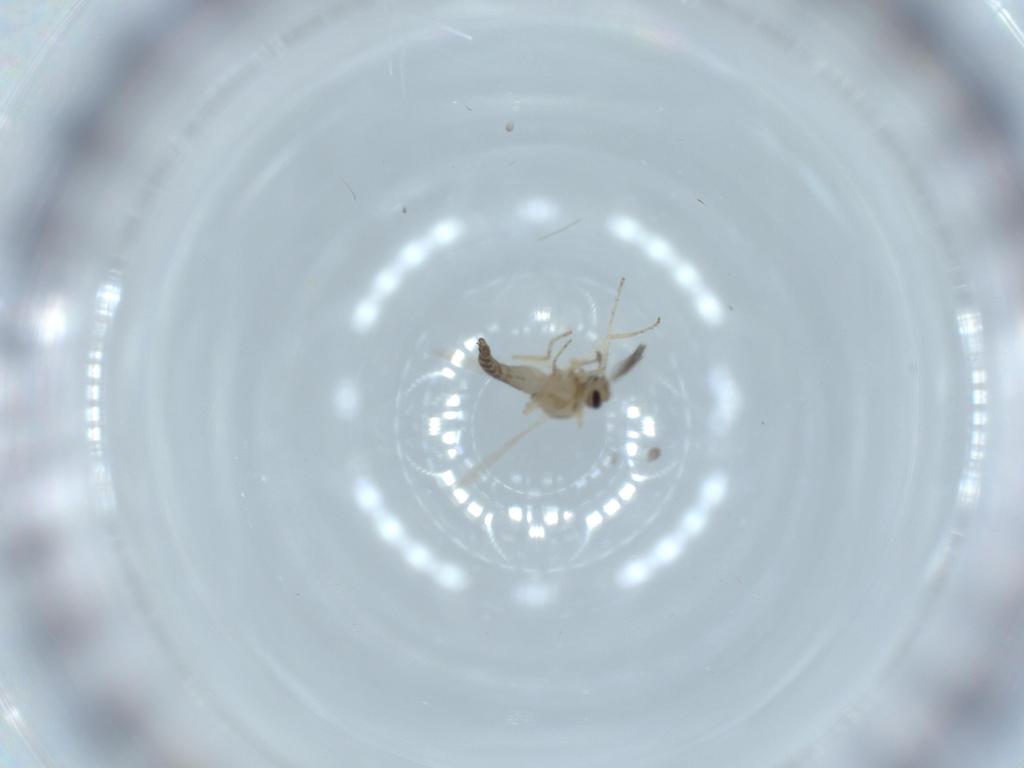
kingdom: Animalia
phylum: Arthropoda
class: Insecta
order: Diptera
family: Ceratopogonidae
